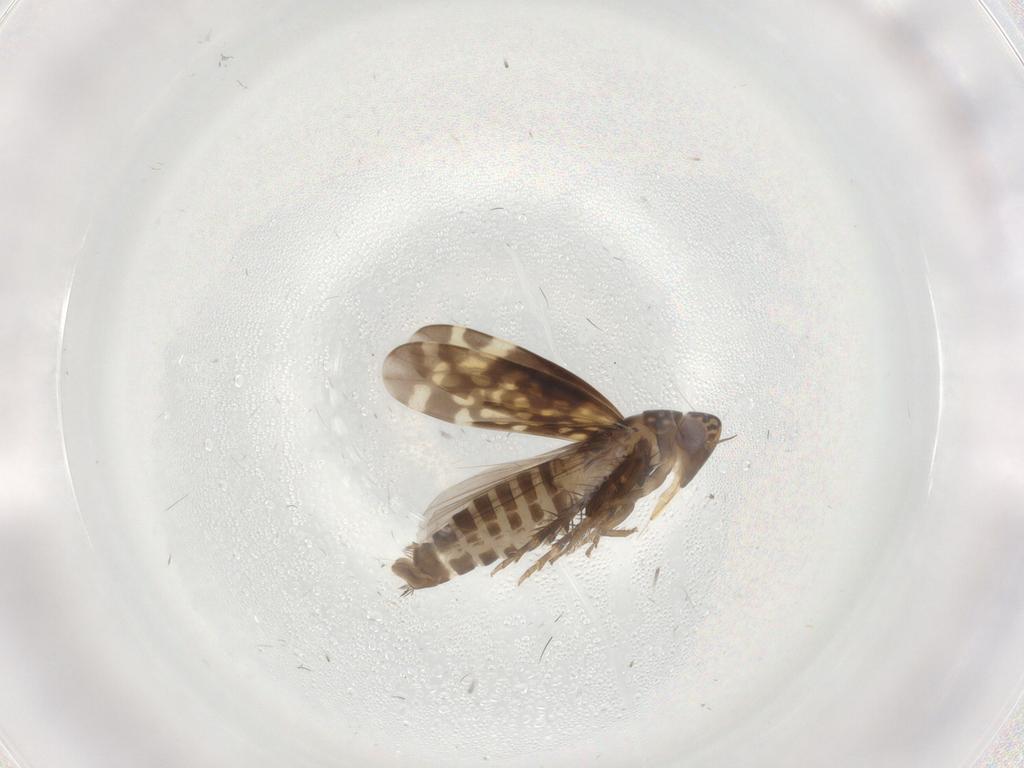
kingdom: Animalia
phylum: Arthropoda
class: Insecta
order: Hemiptera
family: Cicadellidae
